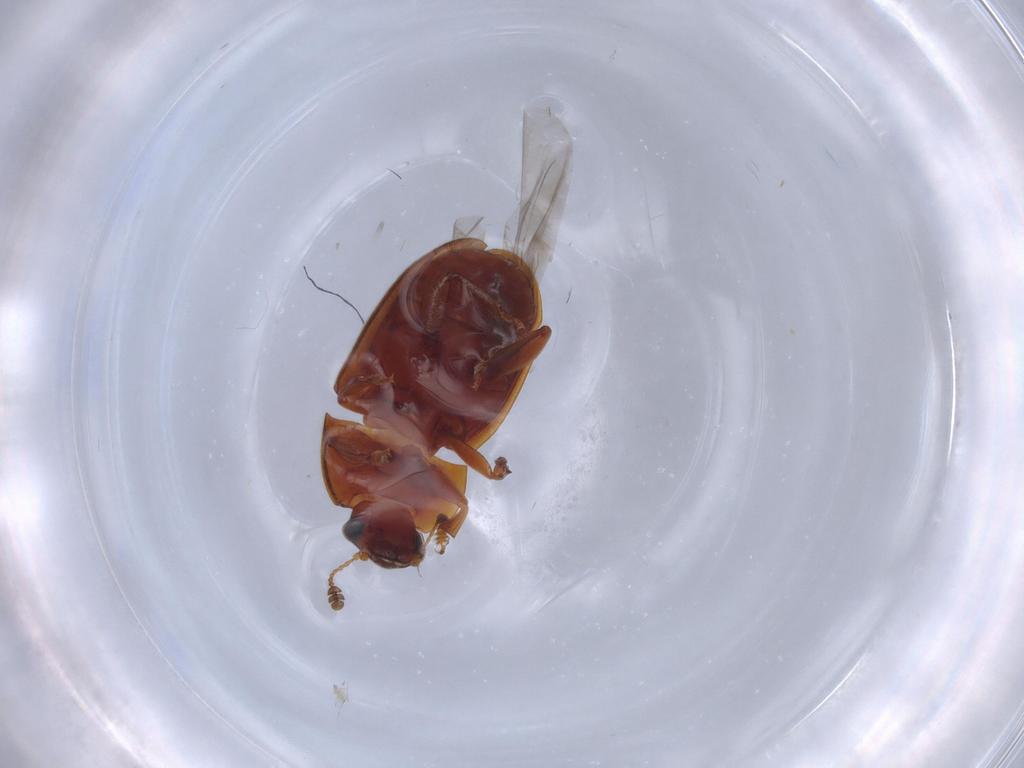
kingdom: Animalia
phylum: Arthropoda
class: Insecta
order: Coleoptera
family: Nitidulidae
